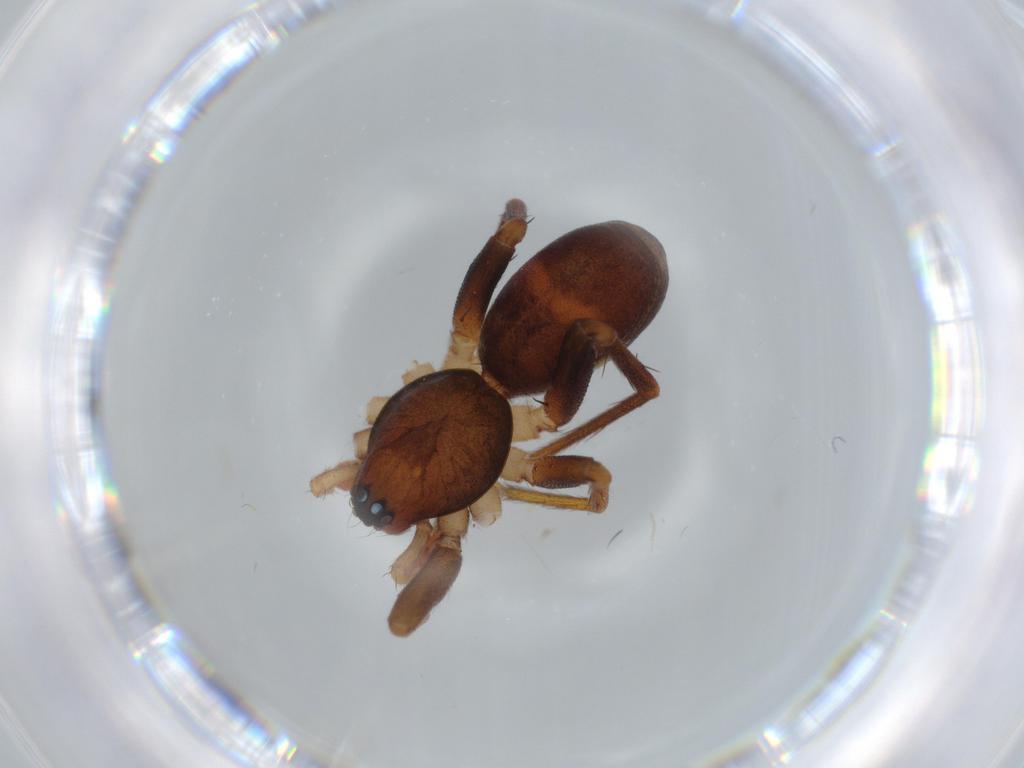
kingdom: Animalia
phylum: Arthropoda
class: Arachnida
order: Araneae
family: Corinnidae
